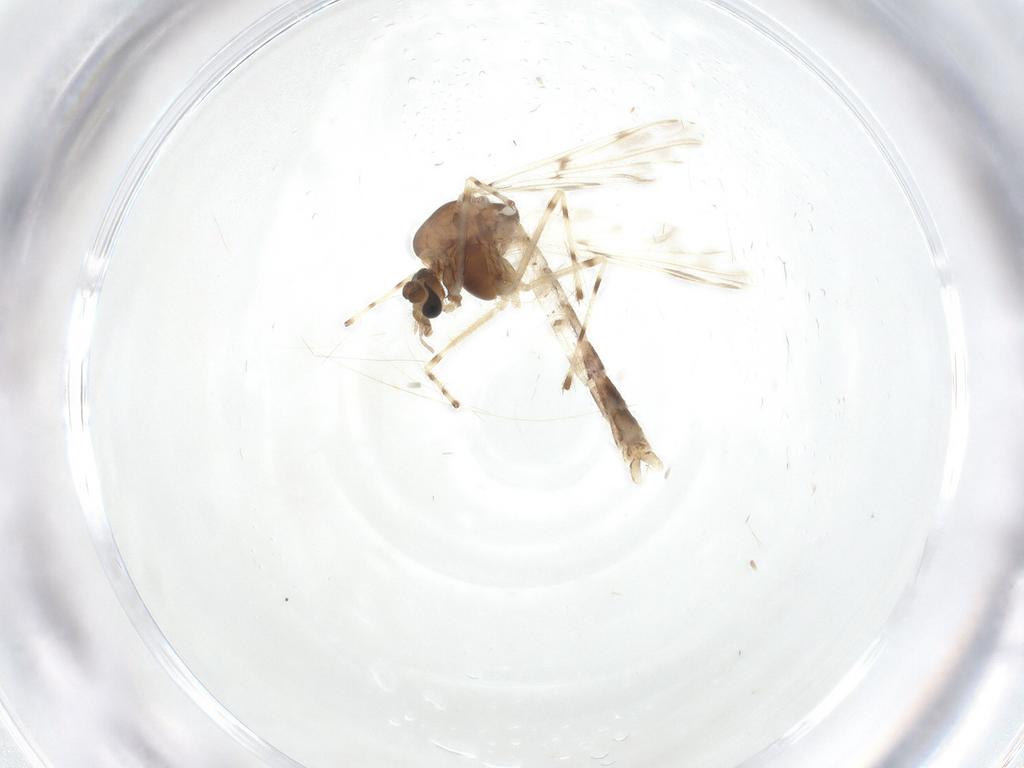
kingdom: Animalia
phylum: Arthropoda
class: Insecta
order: Diptera
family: Chironomidae
